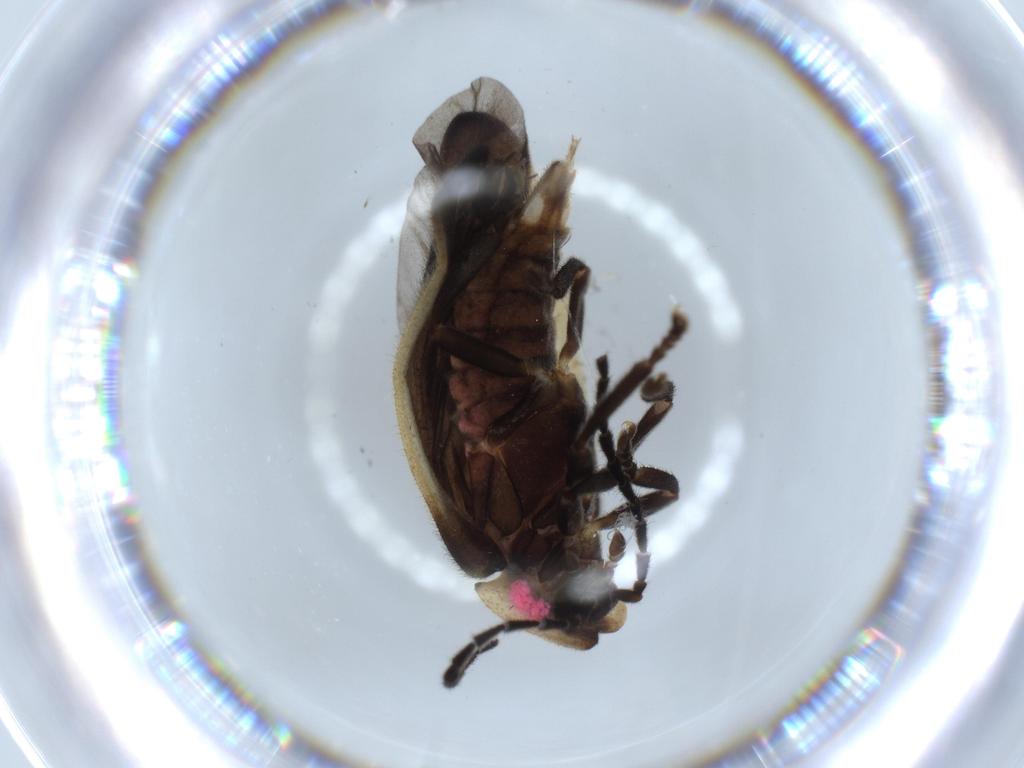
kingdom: Animalia
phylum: Arthropoda
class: Insecta
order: Coleoptera
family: Lampyridae
